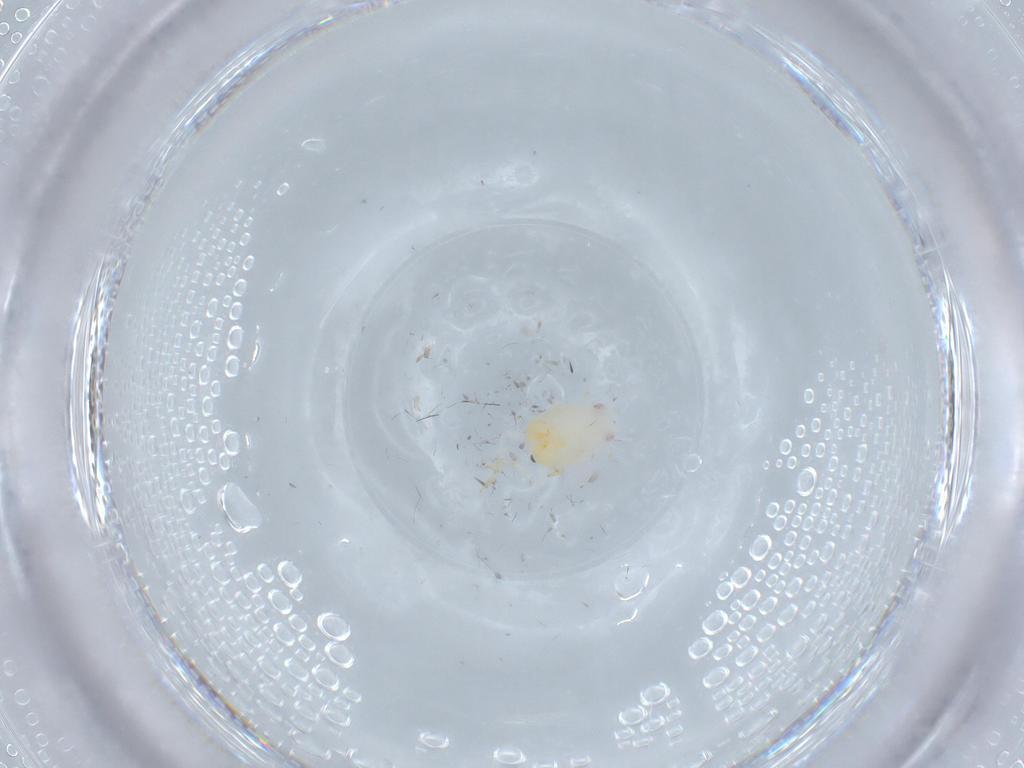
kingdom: Animalia
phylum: Arthropoda
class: Insecta
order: Hemiptera
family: Flatidae
